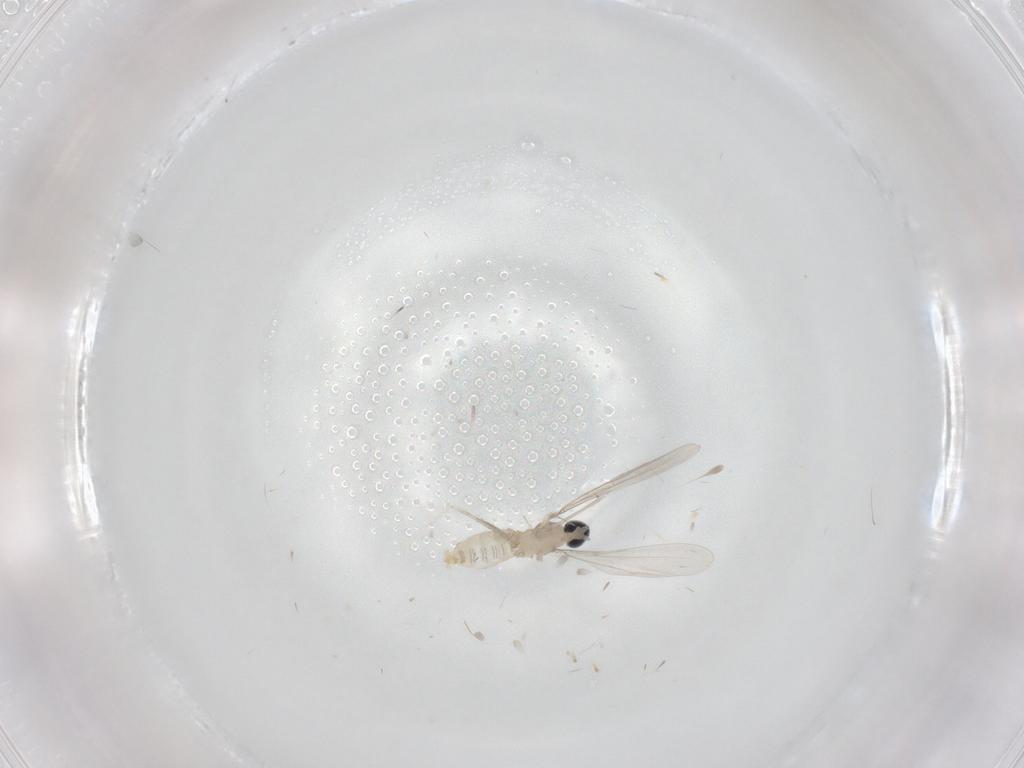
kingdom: Animalia
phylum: Arthropoda
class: Insecta
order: Diptera
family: Cecidomyiidae
